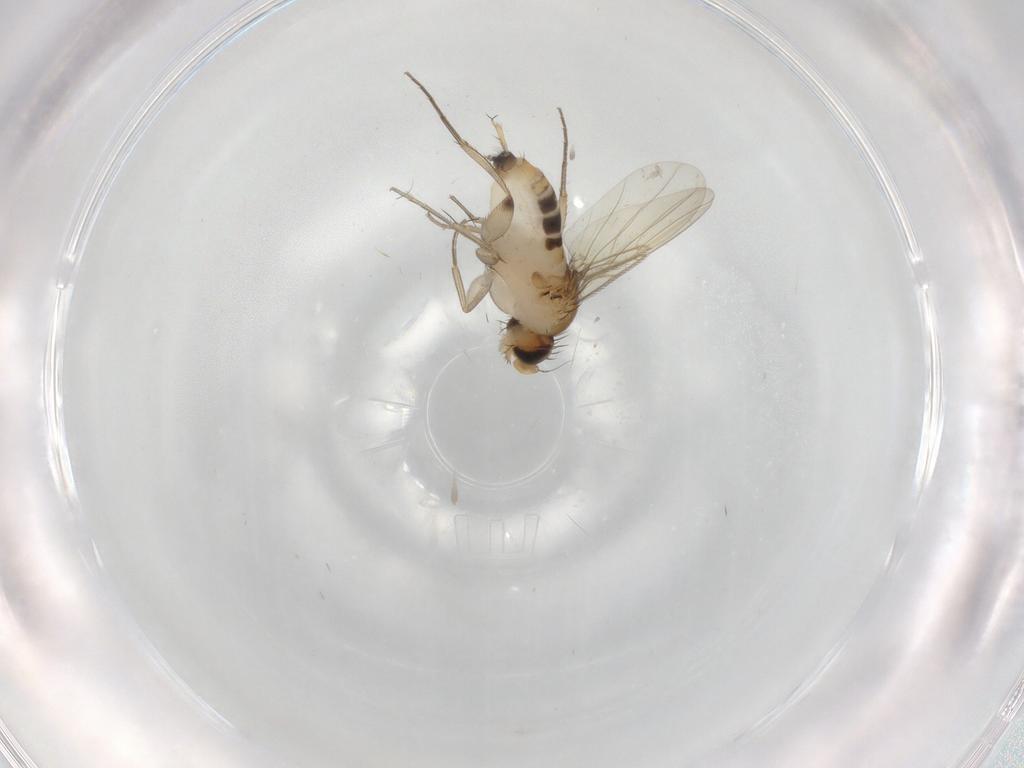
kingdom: Animalia
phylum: Arthropoda
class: Insecta
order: Diptera
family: Phoridae
